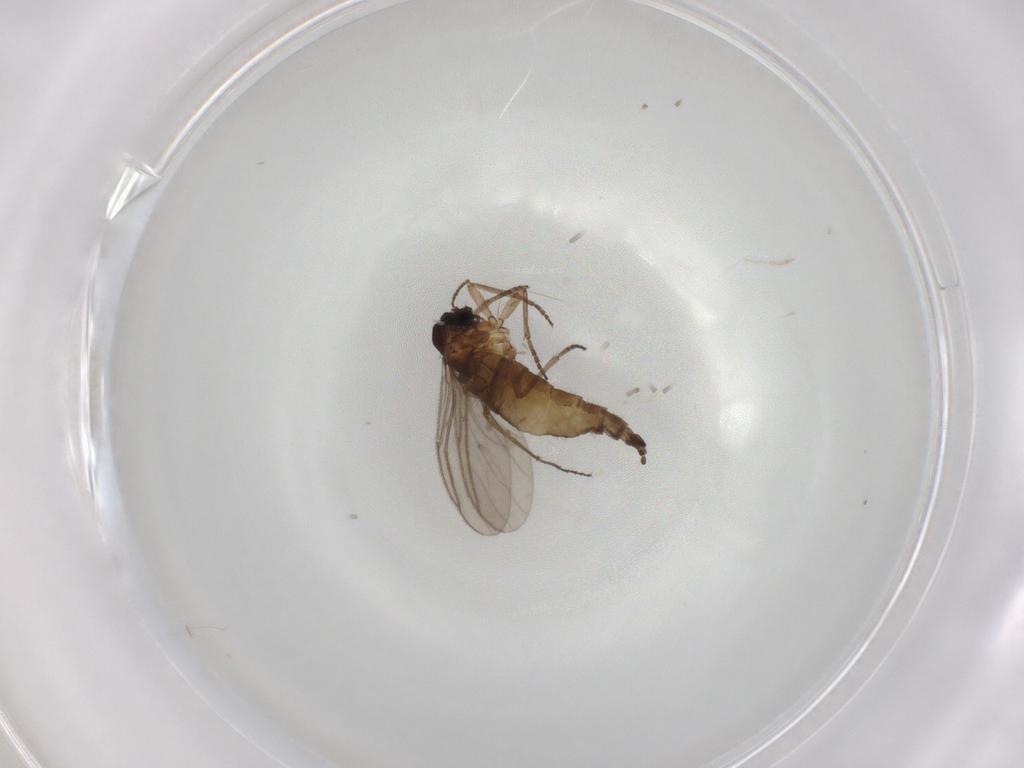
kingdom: Animalia
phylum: Arthropoda
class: Insecta
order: Diptera
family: Sciaridae
